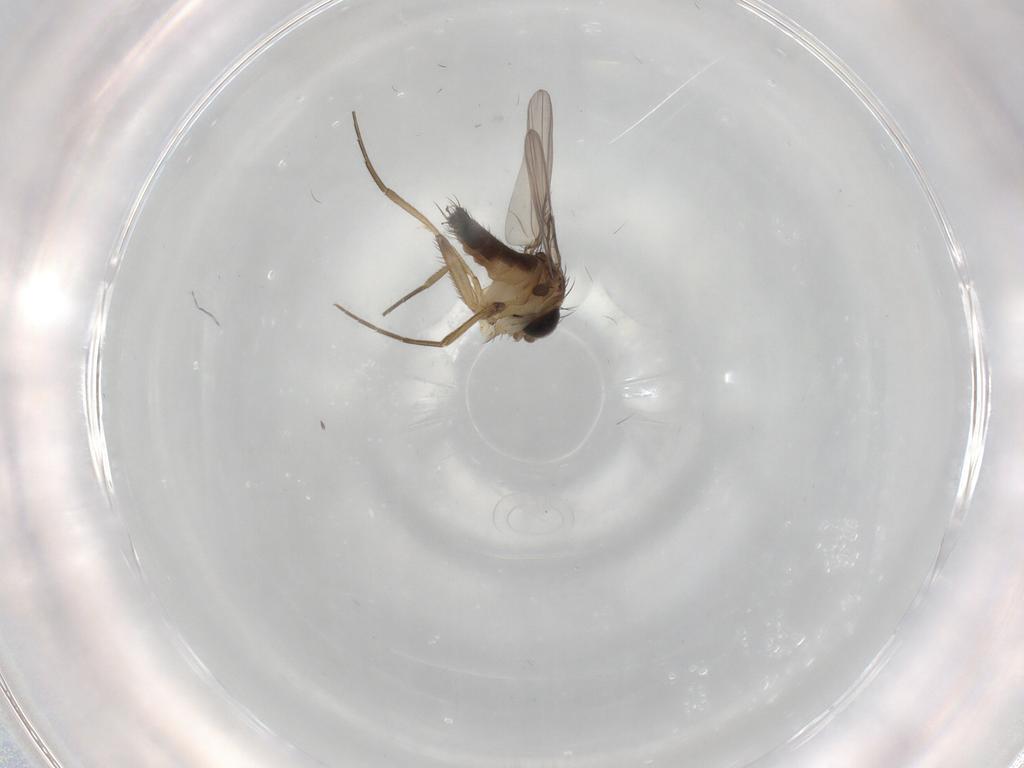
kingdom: Animalia
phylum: Arthropoda
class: Insecta
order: Diptera
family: Phoridae
